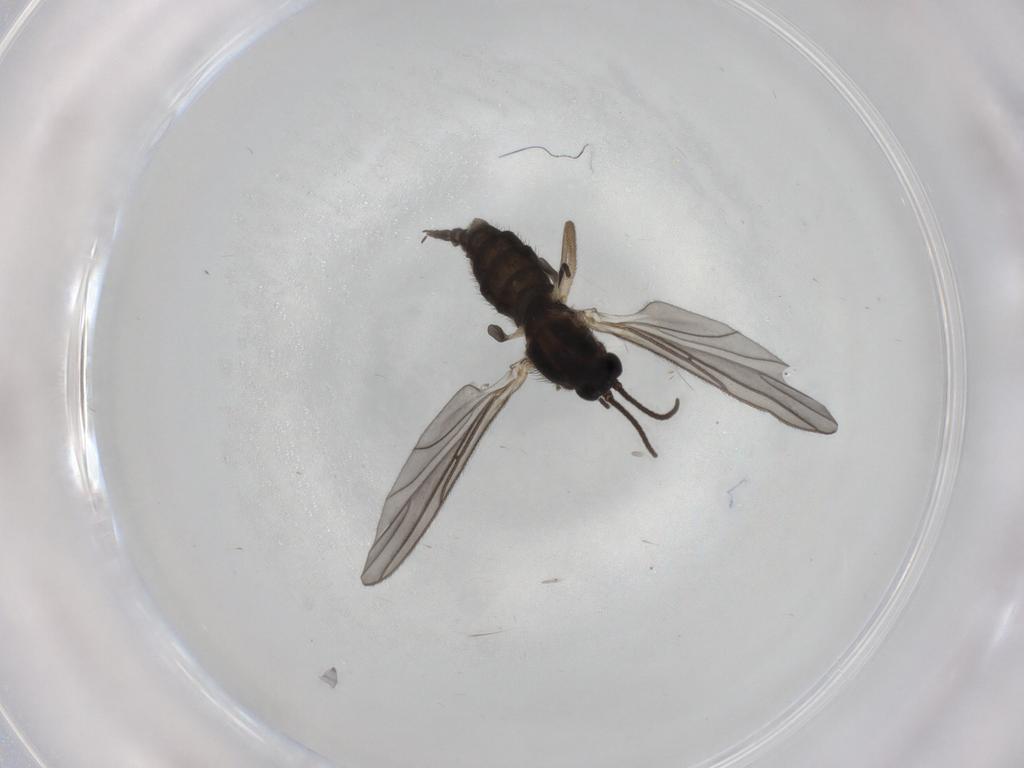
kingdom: Animalia
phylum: Arthropoda
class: Insecta
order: Diptera
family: Sciaridae
